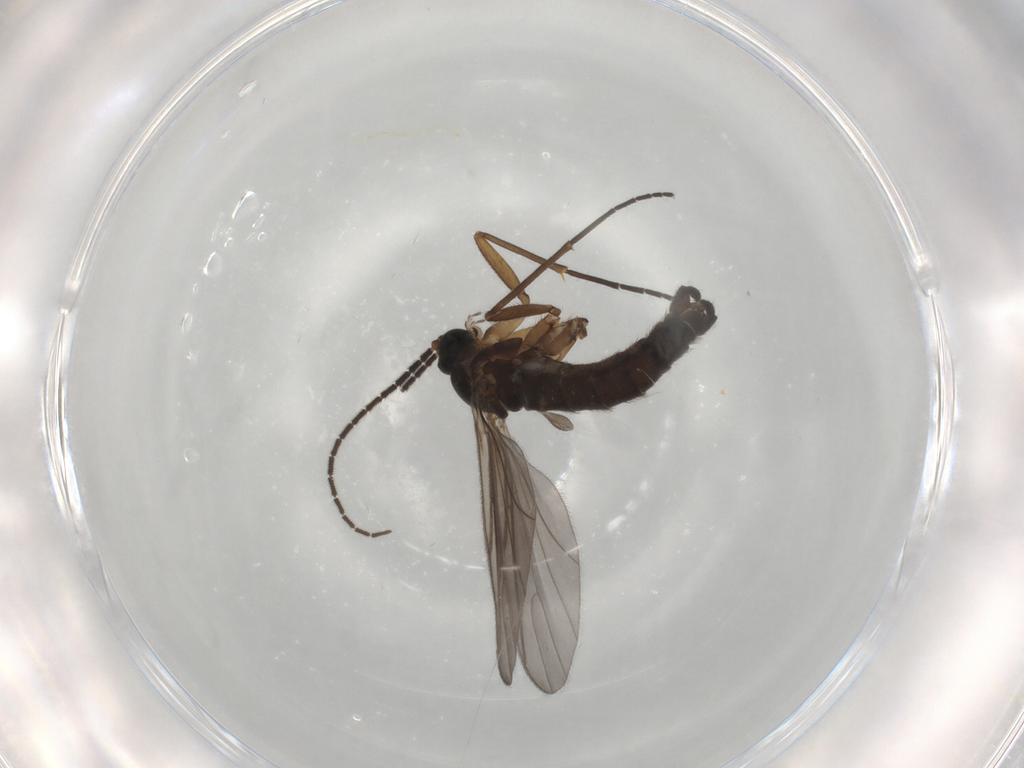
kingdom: Animalia
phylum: Arthropoda
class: Insecta
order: Diptera
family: Sciaridae
